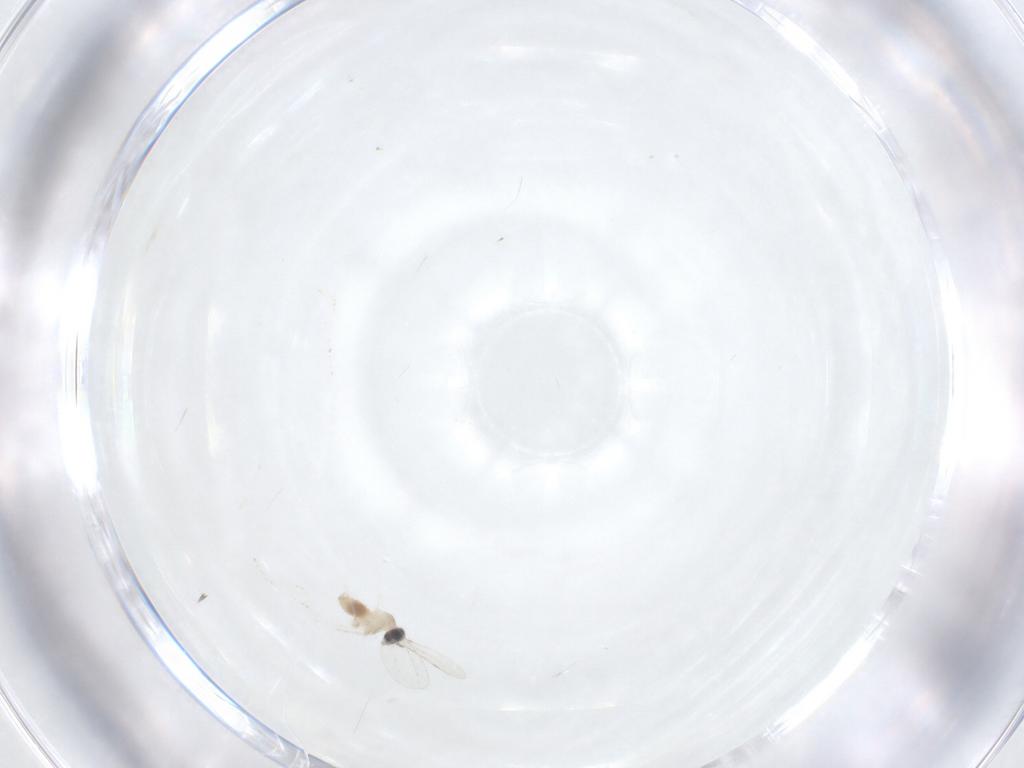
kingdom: Animalia
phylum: Arthropoda
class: Insecta
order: Diptera
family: Cecidomyiidae
